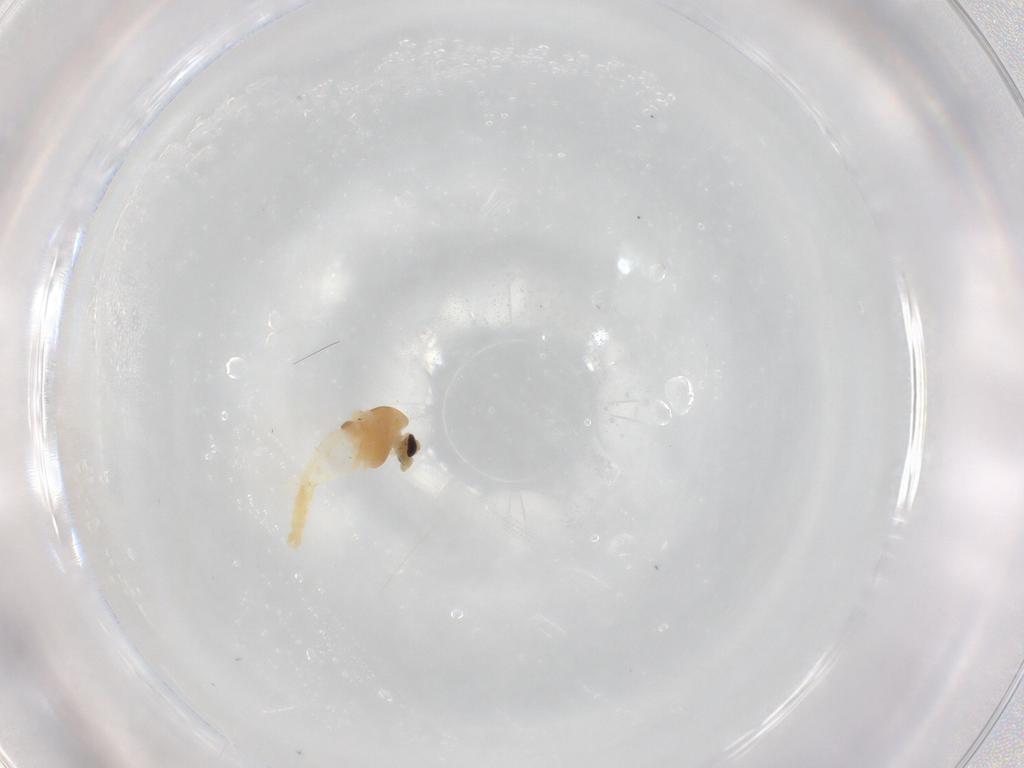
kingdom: Animalia
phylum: Arthropoda
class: Insecta
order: Diptera
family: Chironomidae
